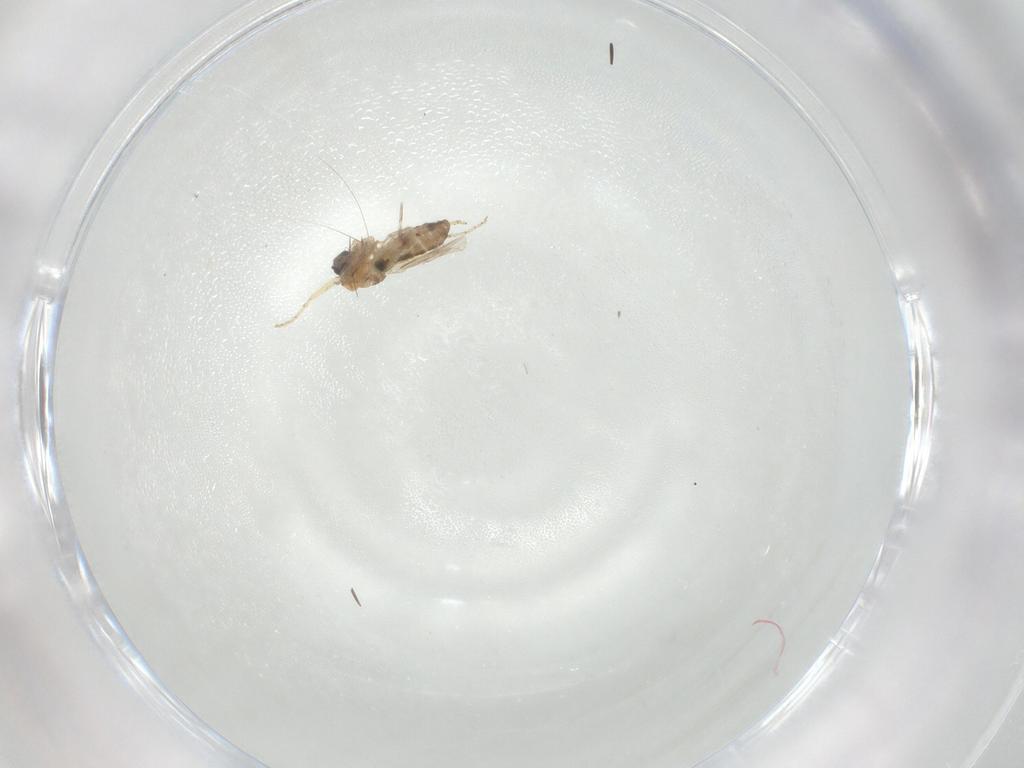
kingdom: Animalia
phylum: Arthropoda
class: Insecta
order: Diptera
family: Ceratopogonidae
